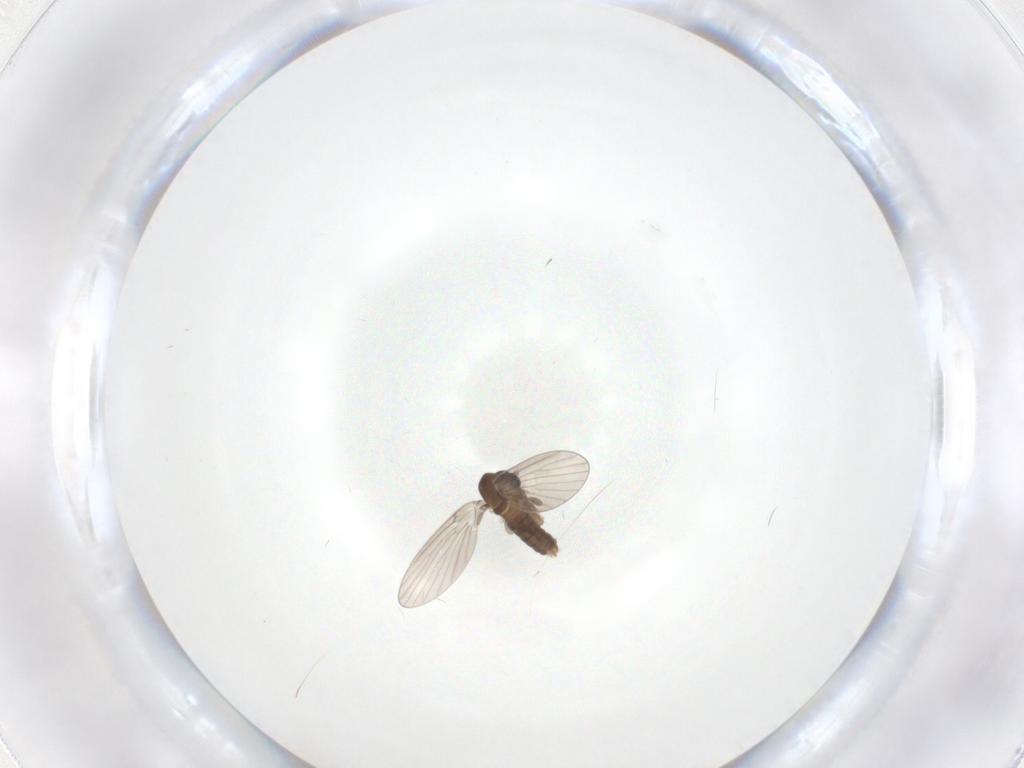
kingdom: Animalia
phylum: Arthropoda
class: Insecta
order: Diptera
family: Psychodidae
